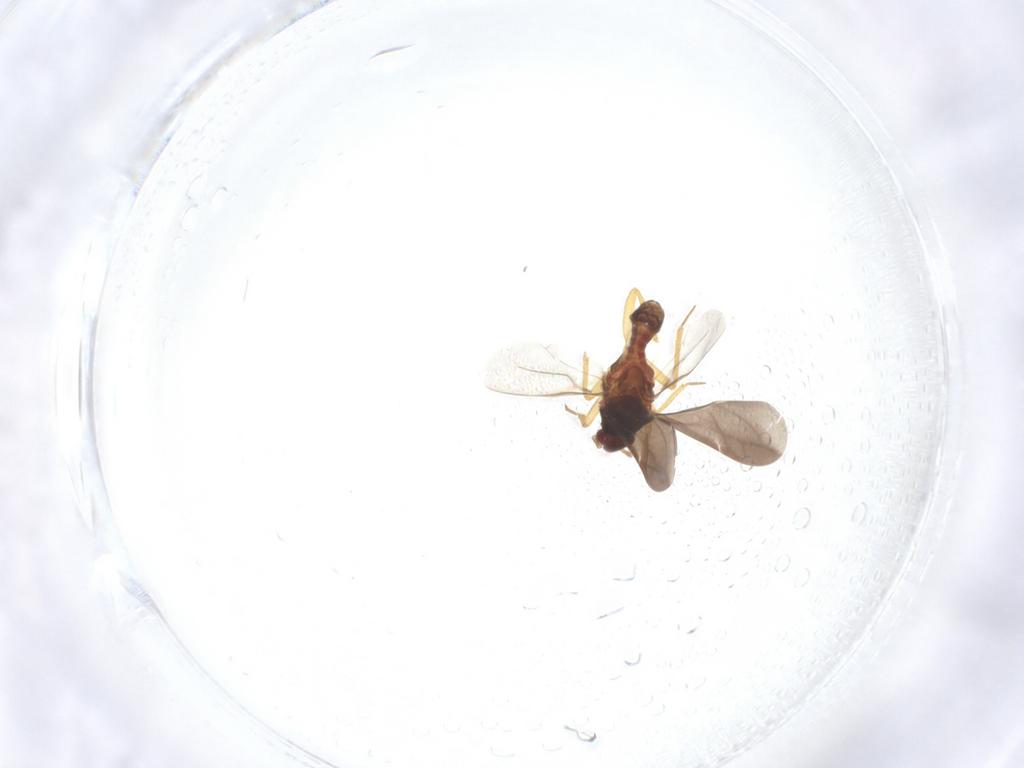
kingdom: Animalia
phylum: Arthropoda
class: Insecta
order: Hemiptera
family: Ceratocombidae
